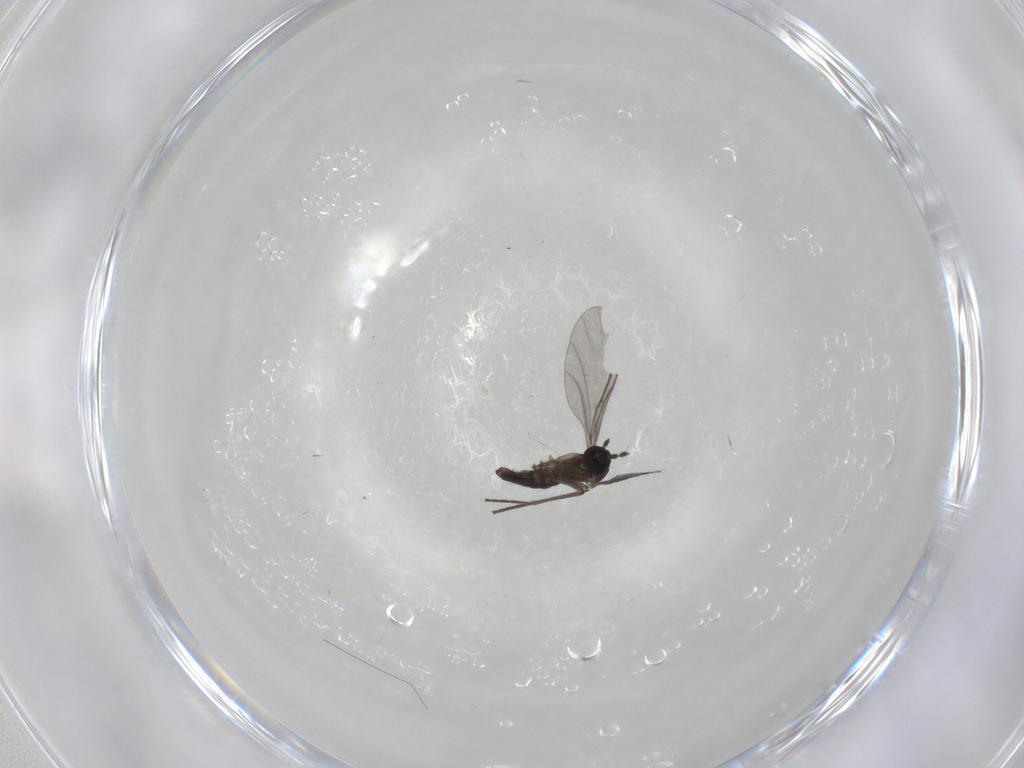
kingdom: Animalia
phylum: Arthropoda
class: Insecta
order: Diptera
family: Cecidomyiidae
